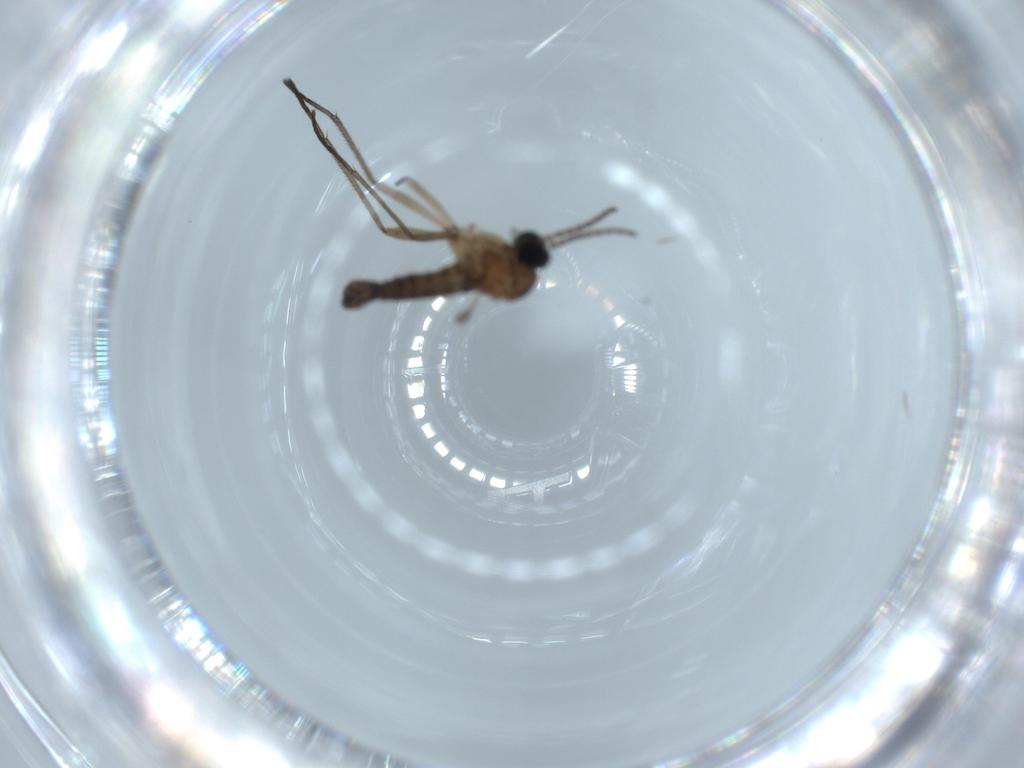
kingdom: Animalia
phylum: Arthropoda
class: Insecta
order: Diptera
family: Sciaridae
